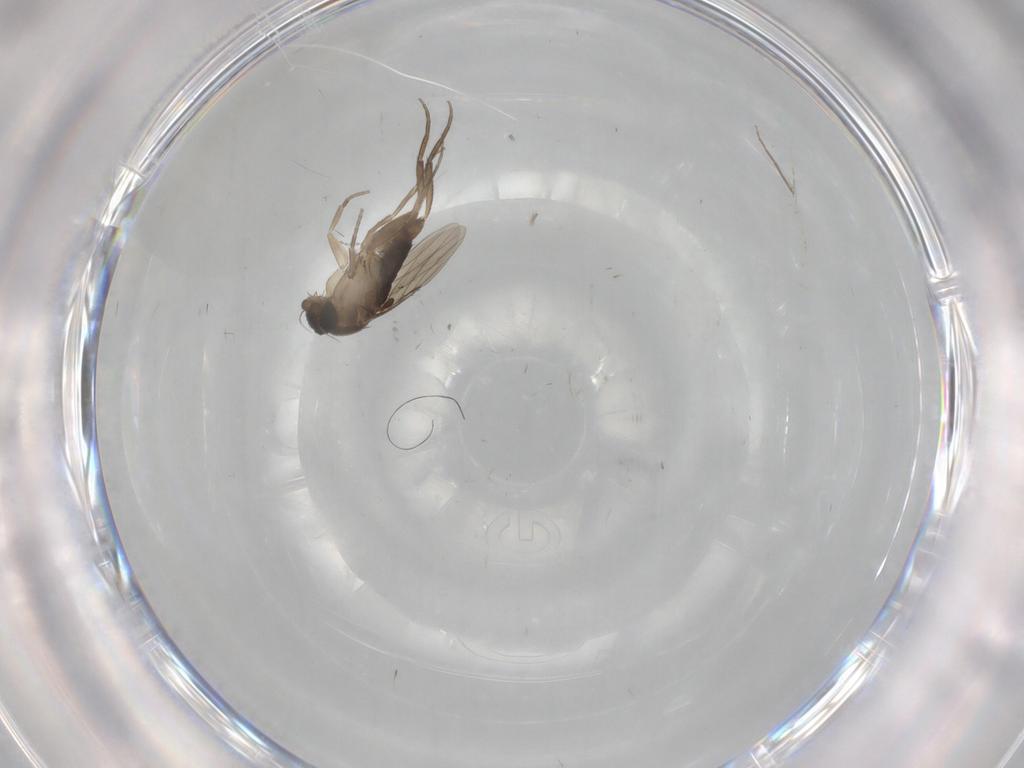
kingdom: Animalia
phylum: Arthropoda
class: Insecta
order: Diptera
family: Phoridae
